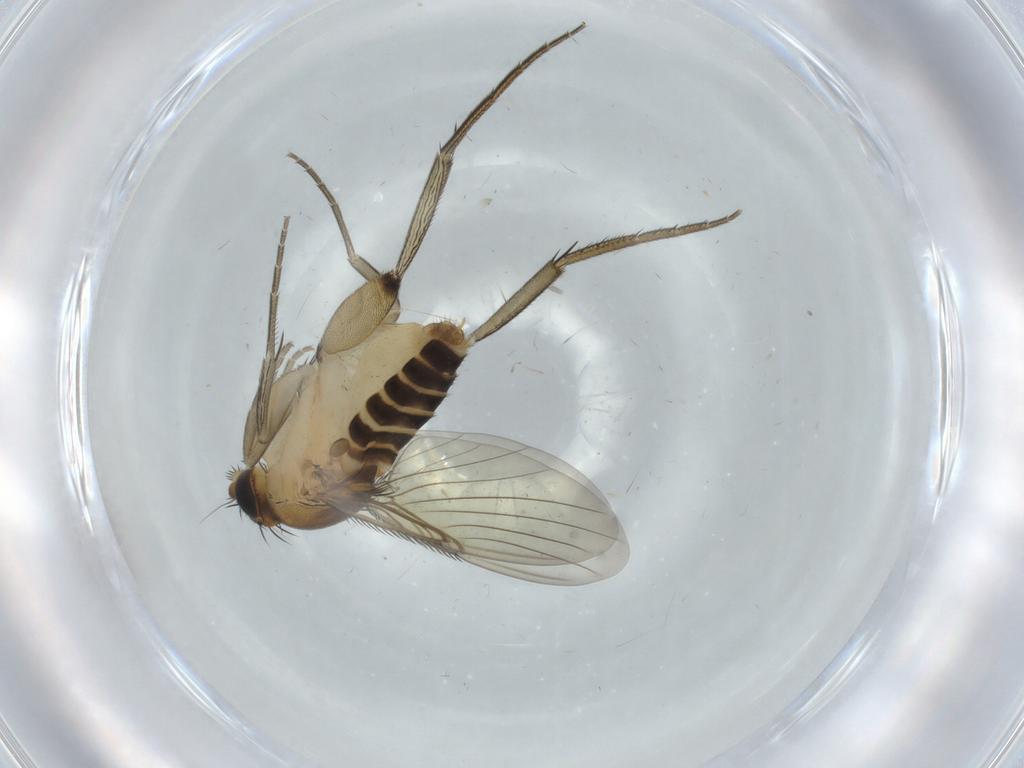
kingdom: Animalia
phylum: Arthropoda
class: Insecta
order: Diptera
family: Phoridae
